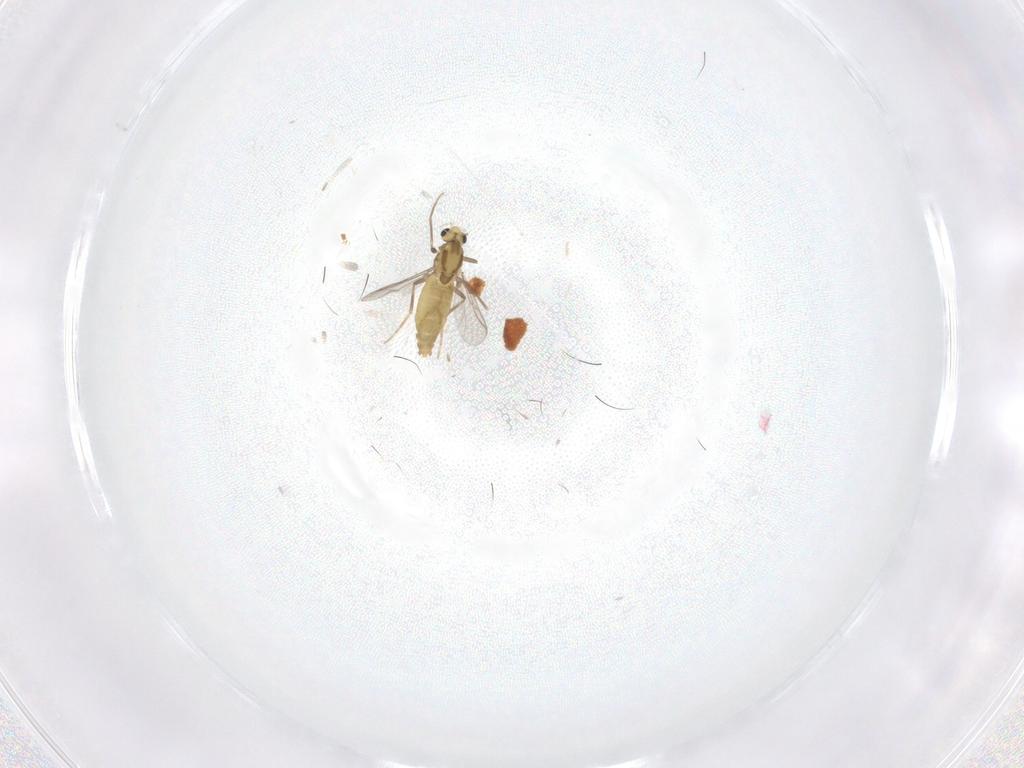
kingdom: Animalia
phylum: Arthropoda
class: Insecta
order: Diptera
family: Chironomidae
